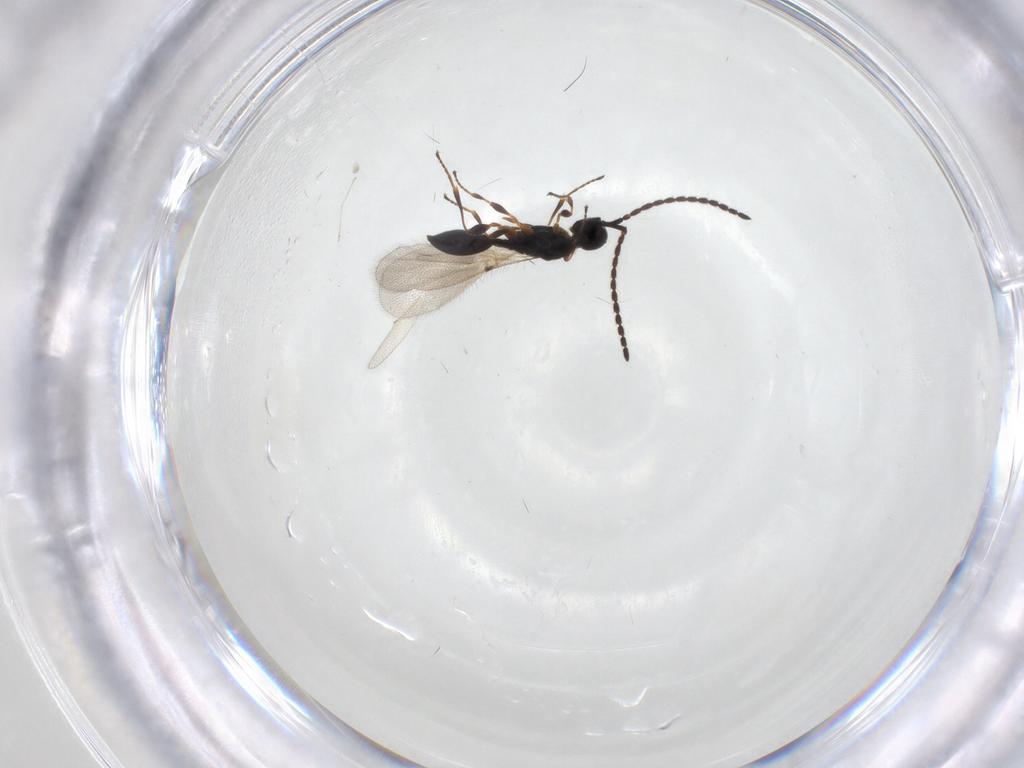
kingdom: Animalia
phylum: Arthropoda
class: Insecta
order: Hymenoptera
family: Diapriidae
